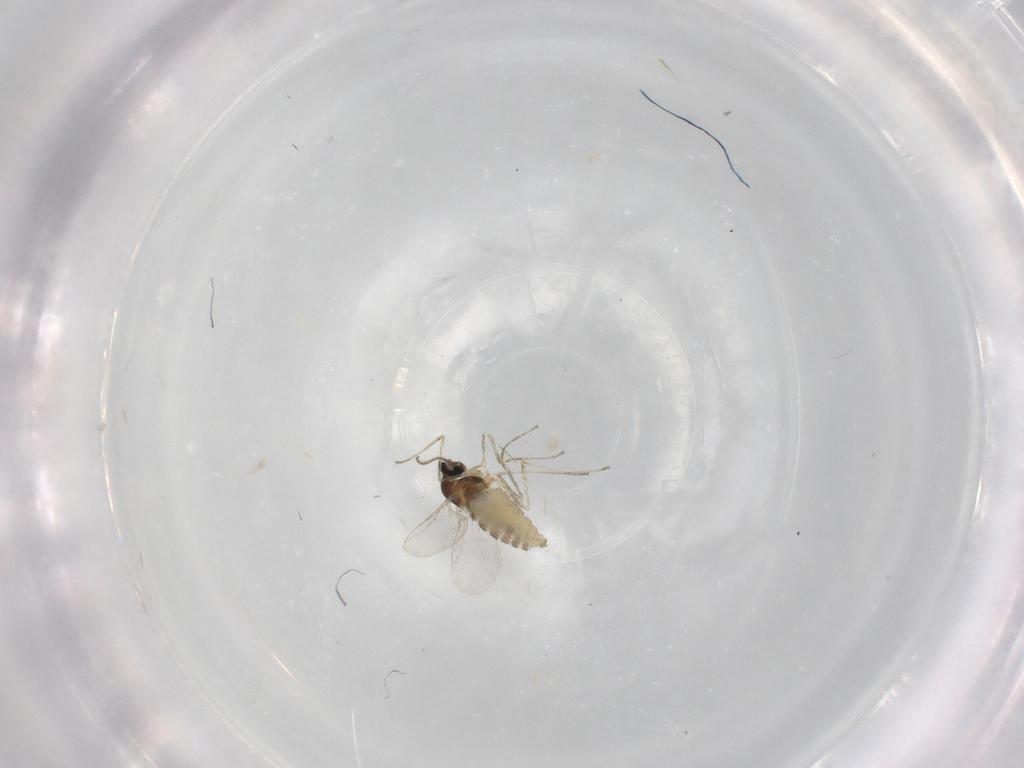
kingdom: Animalia
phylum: Arthropoda
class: Insecta
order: Diptera
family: Cecidomyiidae
